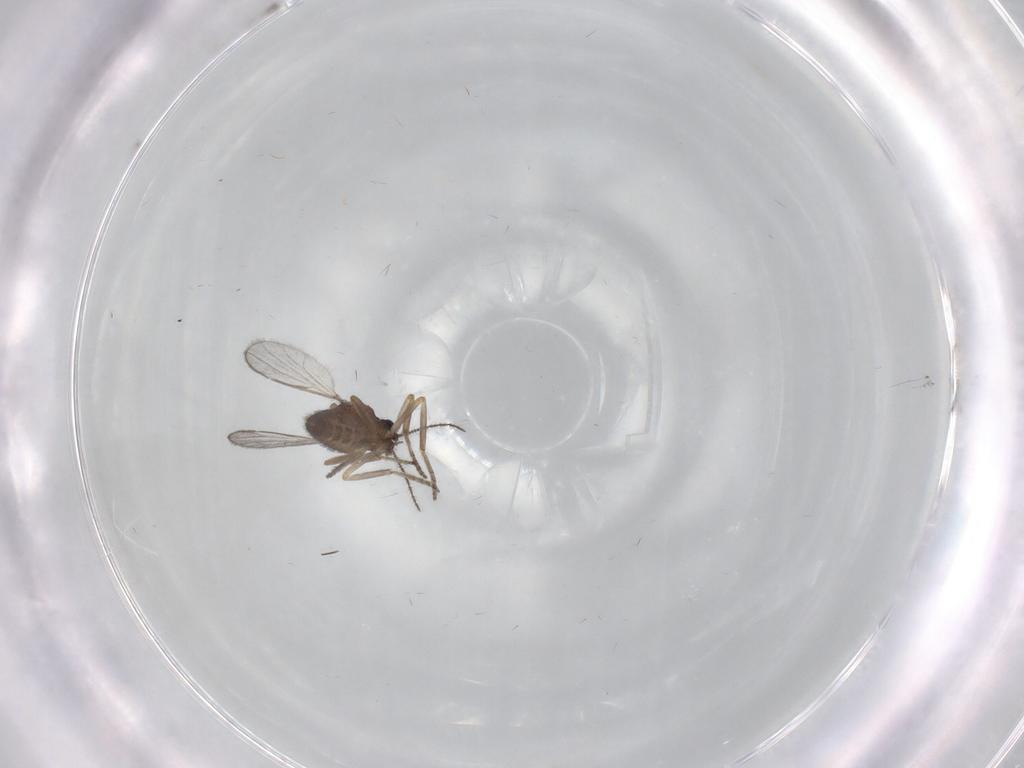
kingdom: Animalia
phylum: Arthropoda
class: Insecta
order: Diptera
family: Ceratopogonidae
